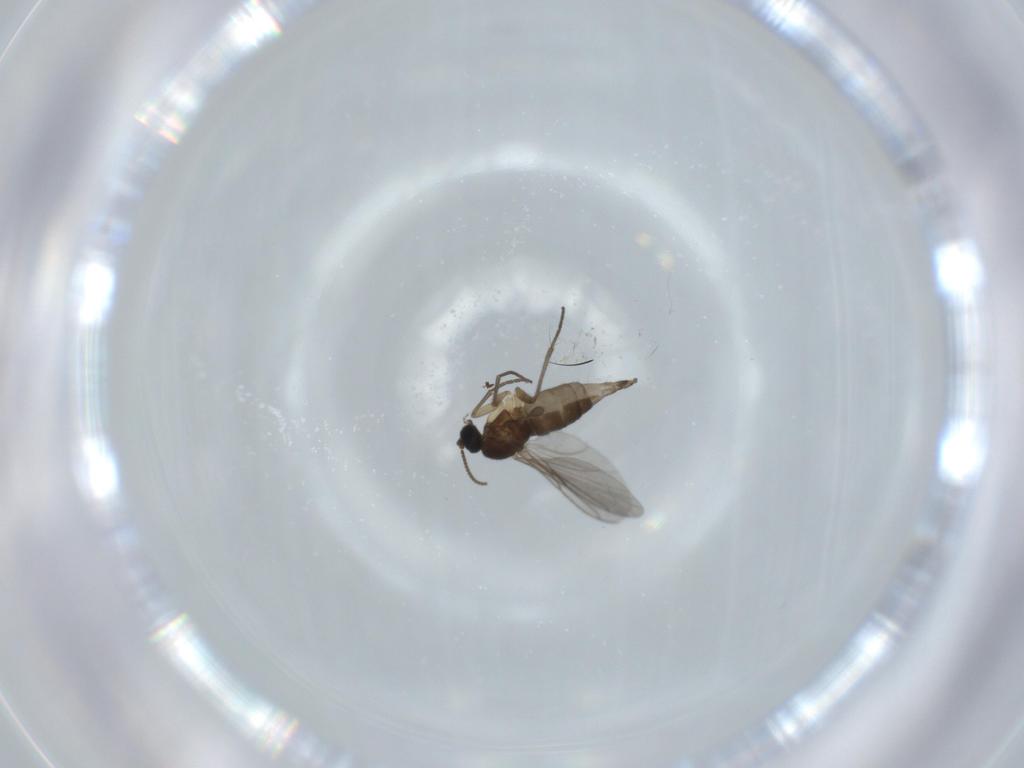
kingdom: Animalia
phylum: Arthropoda
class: Insecta
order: Diptera
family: Sciaridae
